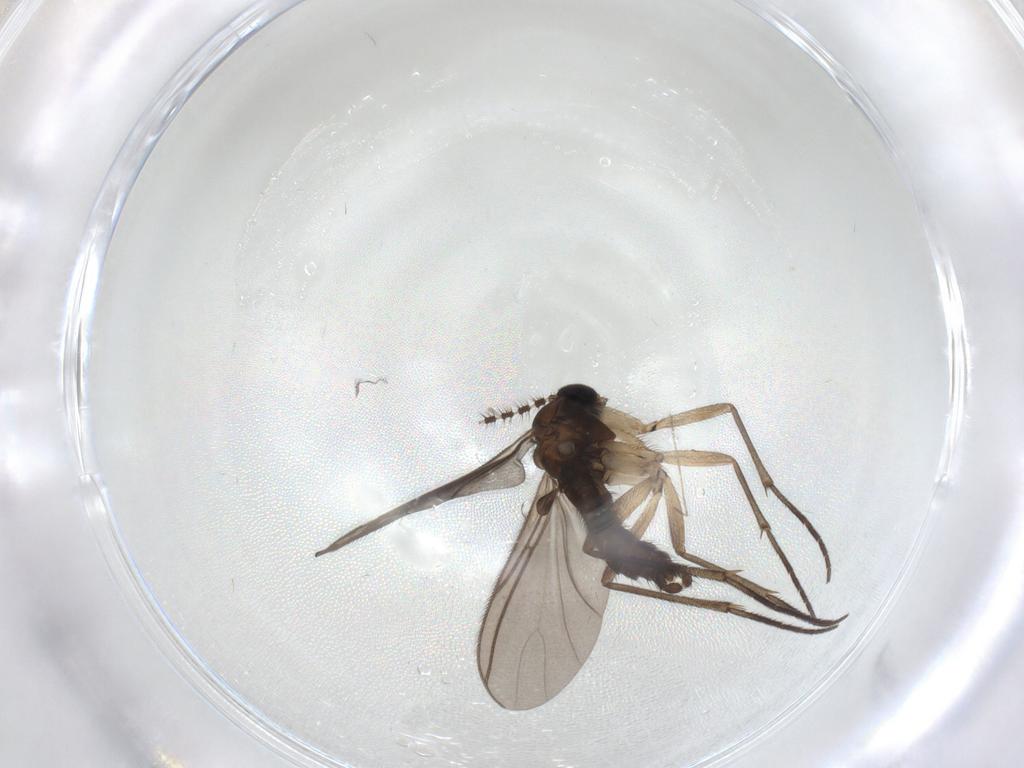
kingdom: Animalia
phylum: Arthropoda
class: Insecta
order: Diptera
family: Sciaridae
